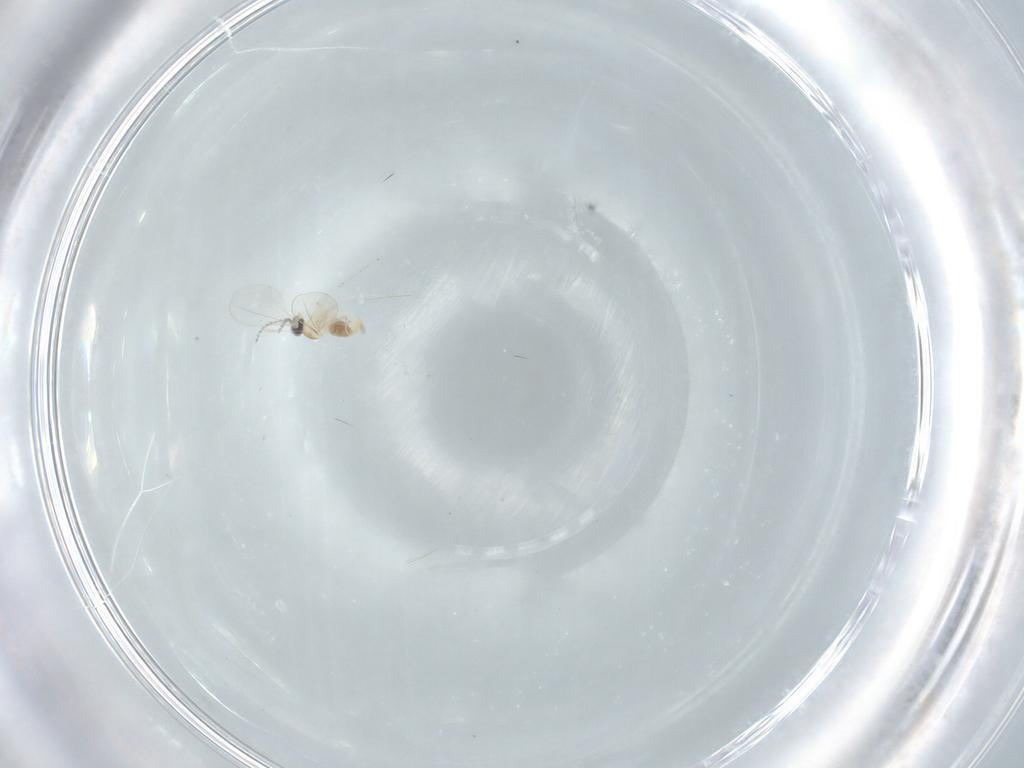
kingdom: Animalia
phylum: Arthropoda
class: Insecta
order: Diptera
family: Cecidomyiidae
